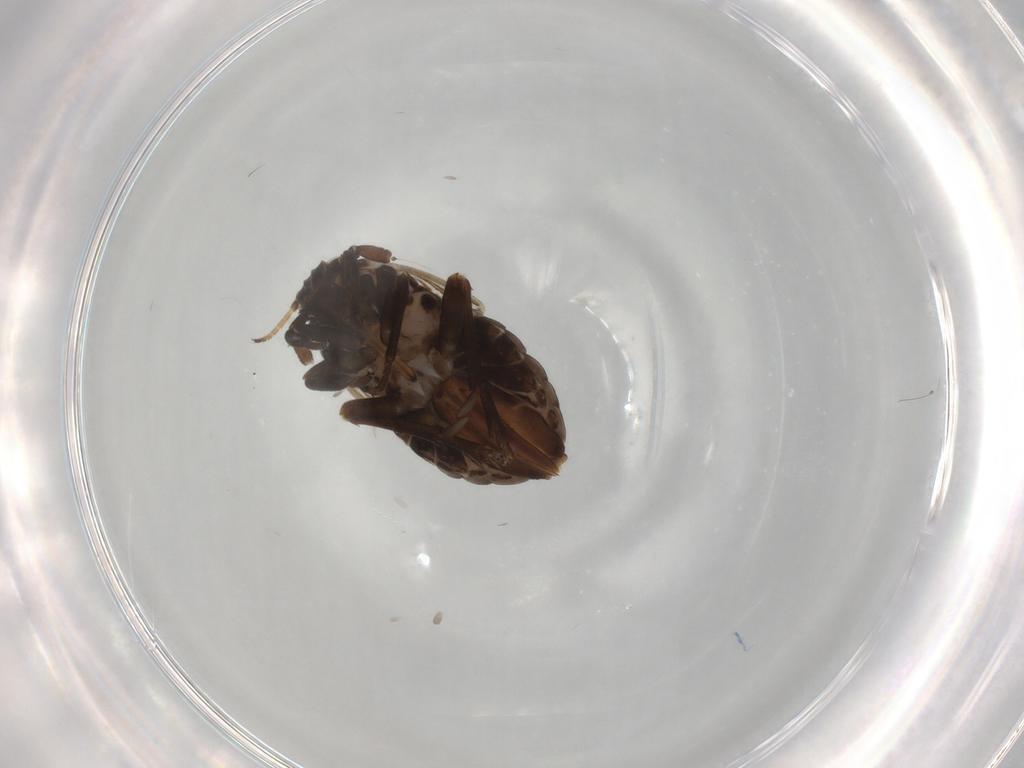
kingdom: Animalia
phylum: Arthropoda
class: Insecta
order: Hemiptera
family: Delphacidae
